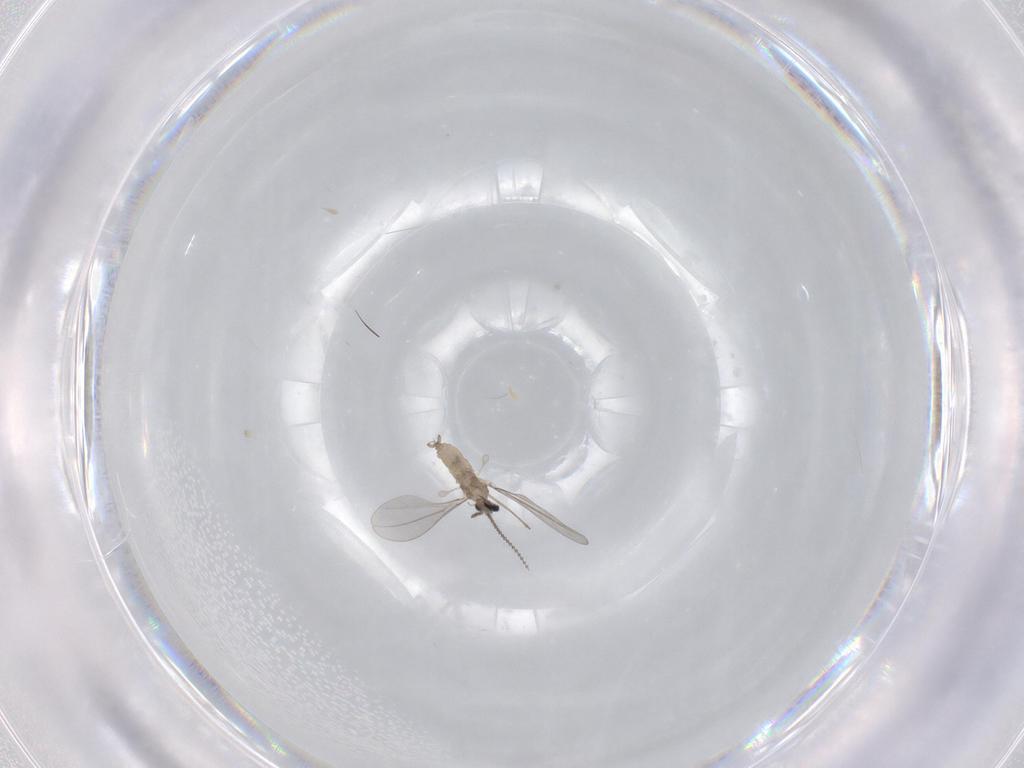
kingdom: Animalia
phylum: Arthropoda
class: Insecta
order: Diptera
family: Cecidomyiidae
